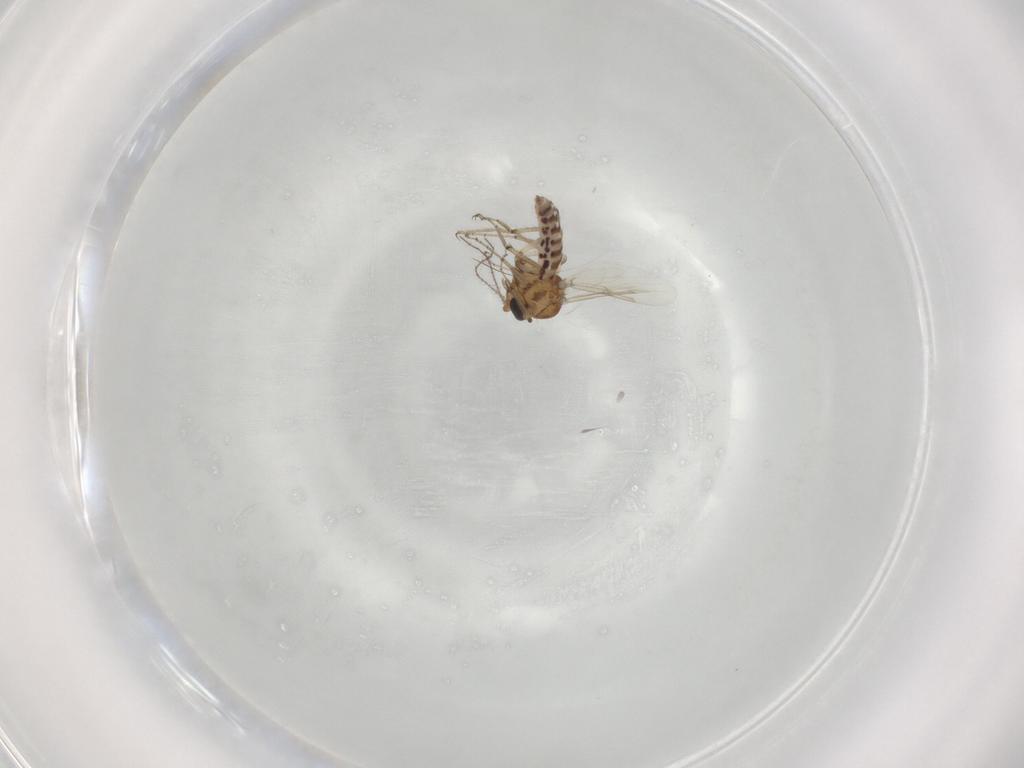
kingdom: Animalia
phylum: Arthropoda
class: Insecta
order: Diptera
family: Ceratopogonidae
